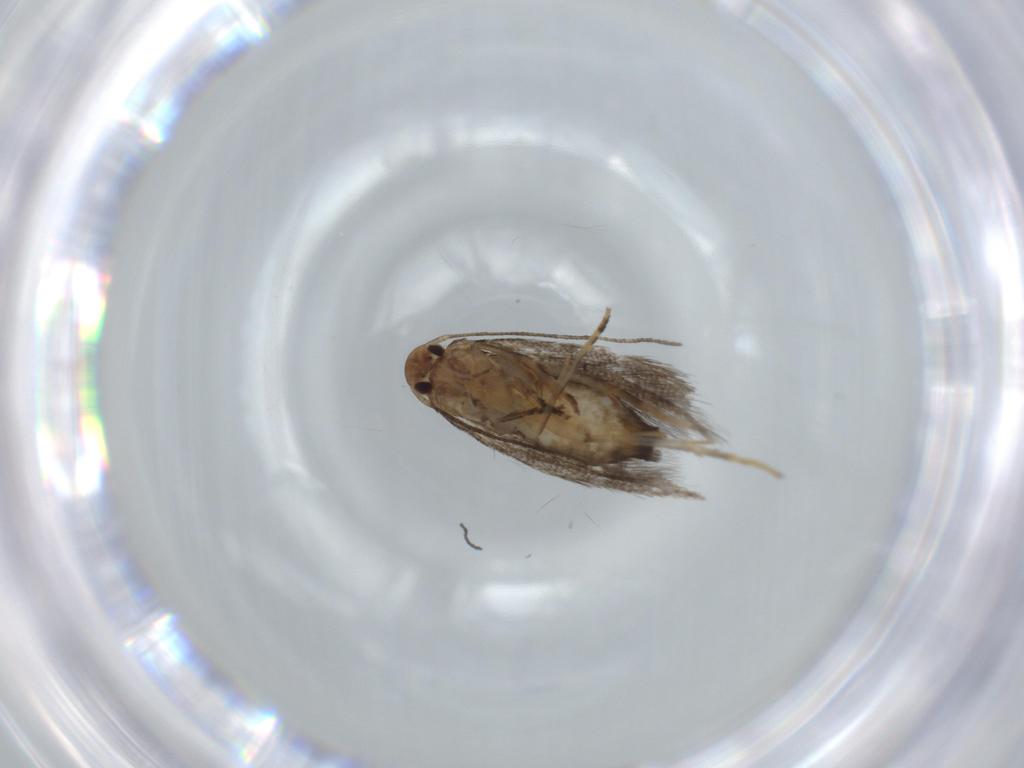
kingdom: Animalia
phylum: Arthropoda
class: Insecta
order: Lepidoptera
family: Elachistidae
